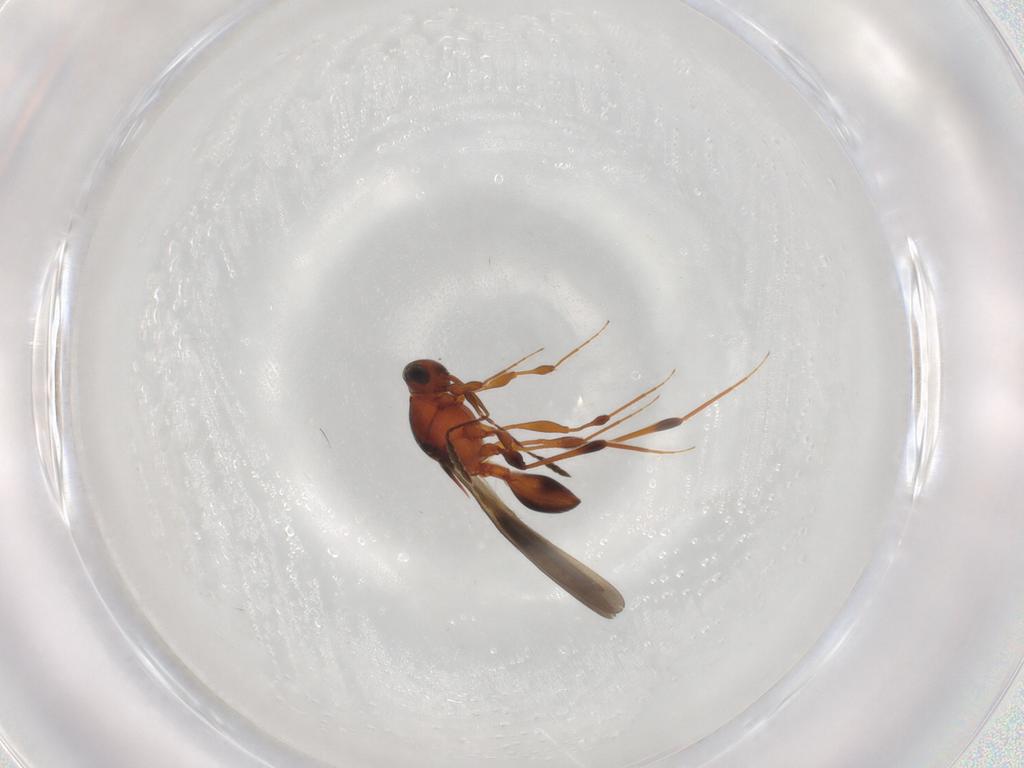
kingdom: Animalia
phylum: Arthropoda
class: Insecta
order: Hymenoptera
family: Platygastridae
